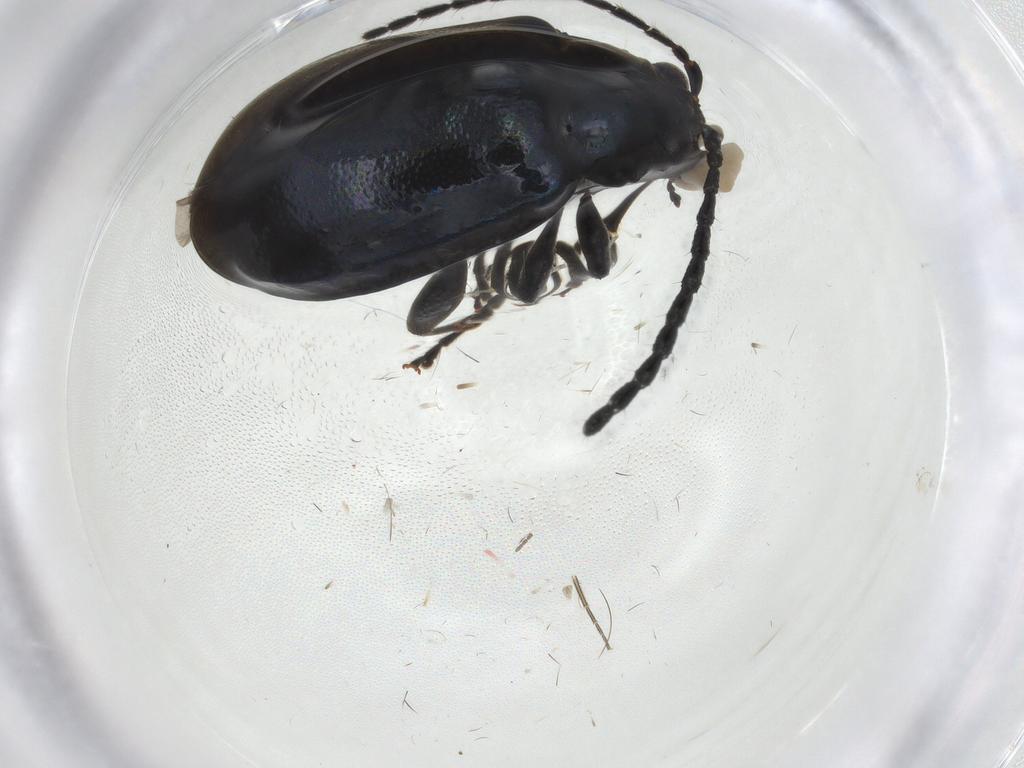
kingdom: Animalia
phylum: Arthropoda
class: Insecta
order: Coleoptera
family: Chrysomelidae
